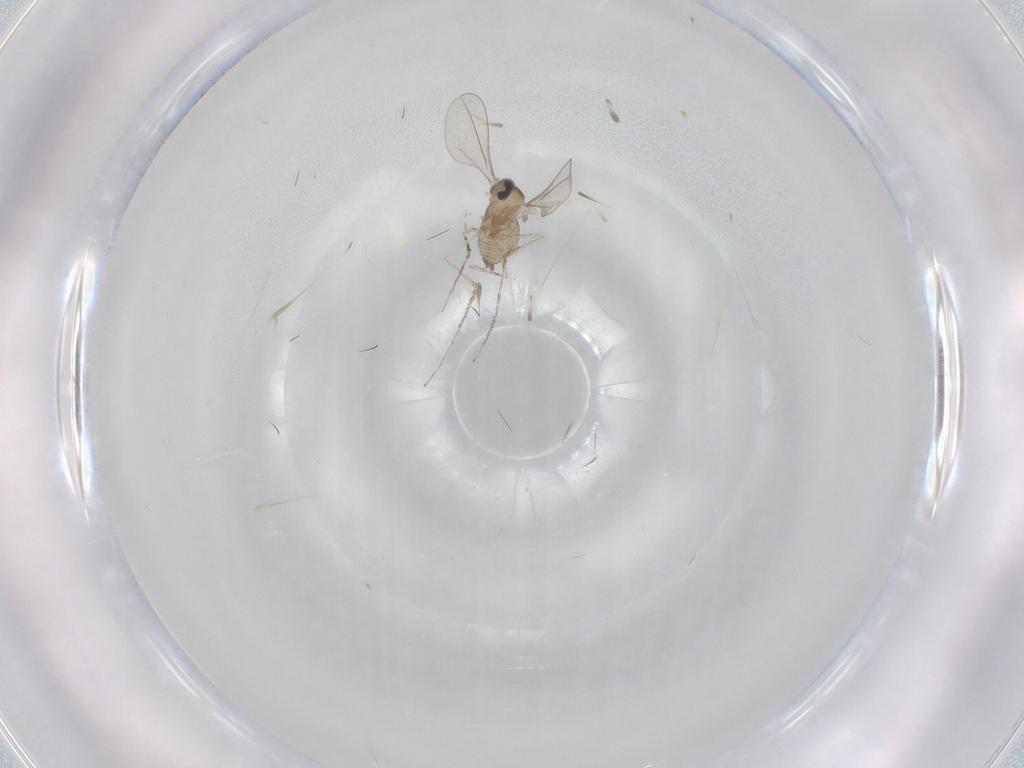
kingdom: Animalia
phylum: Arthropoda
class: Insecta
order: Diptera
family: Cecidomyiidae
